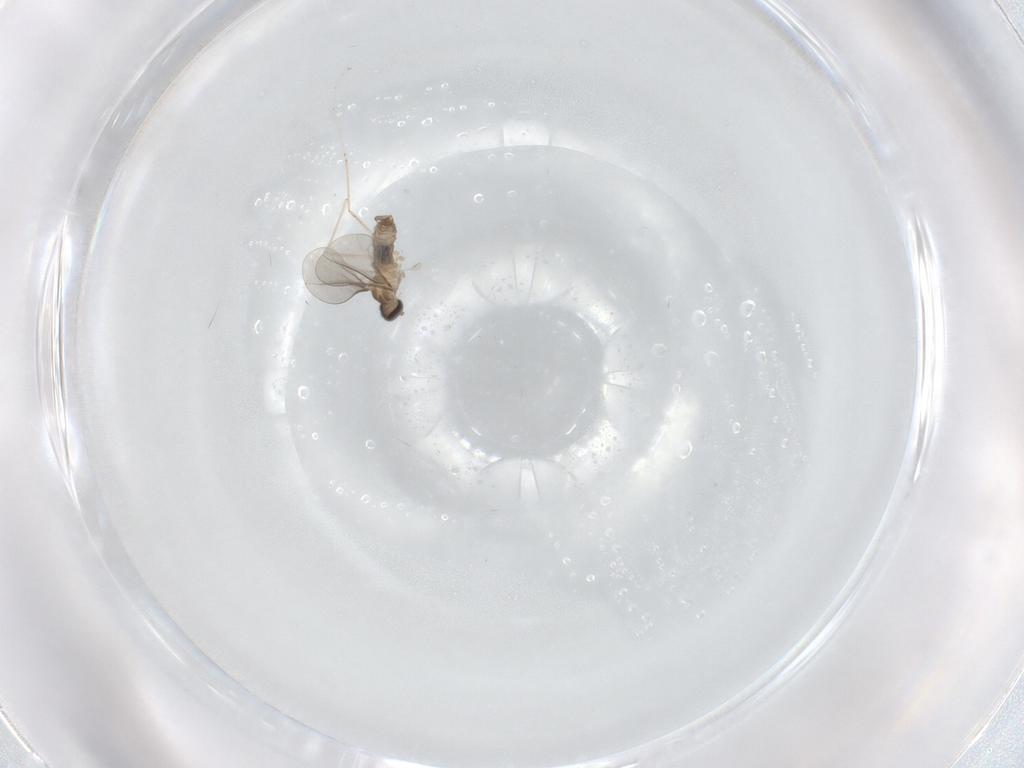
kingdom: Animalia
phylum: Arthropoda
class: Insecta
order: Diptera
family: Cecidomyiidae
